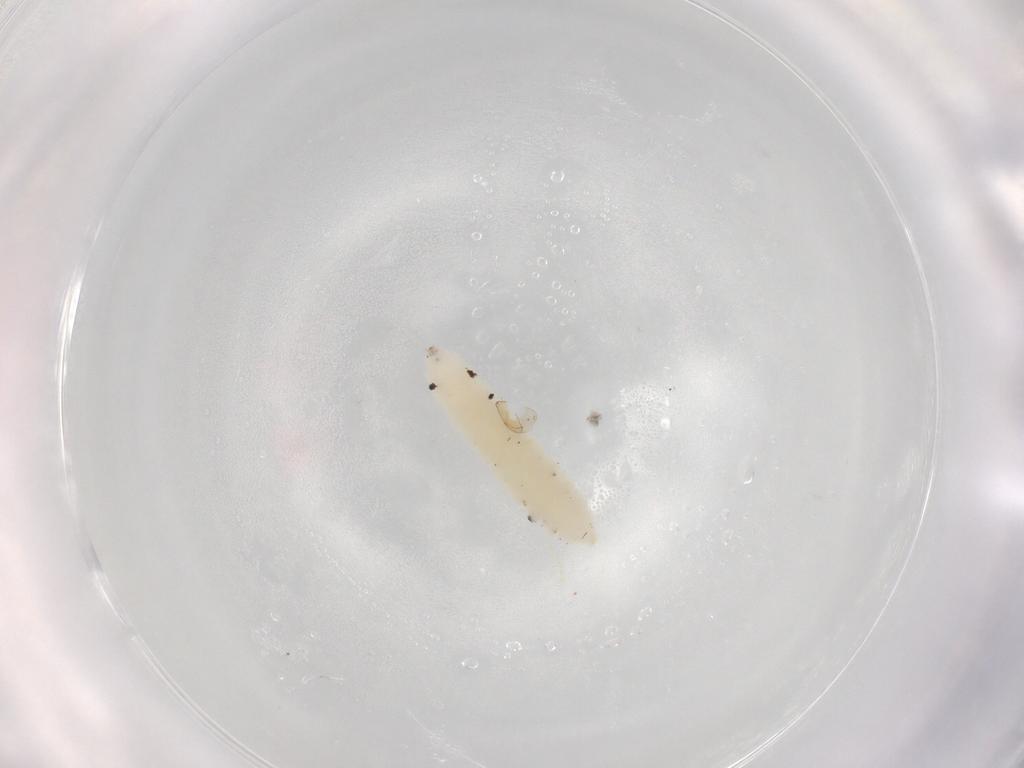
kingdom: Animalia
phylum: Arthropoda
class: Insecta
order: Diptera
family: Cecidomyiidae
